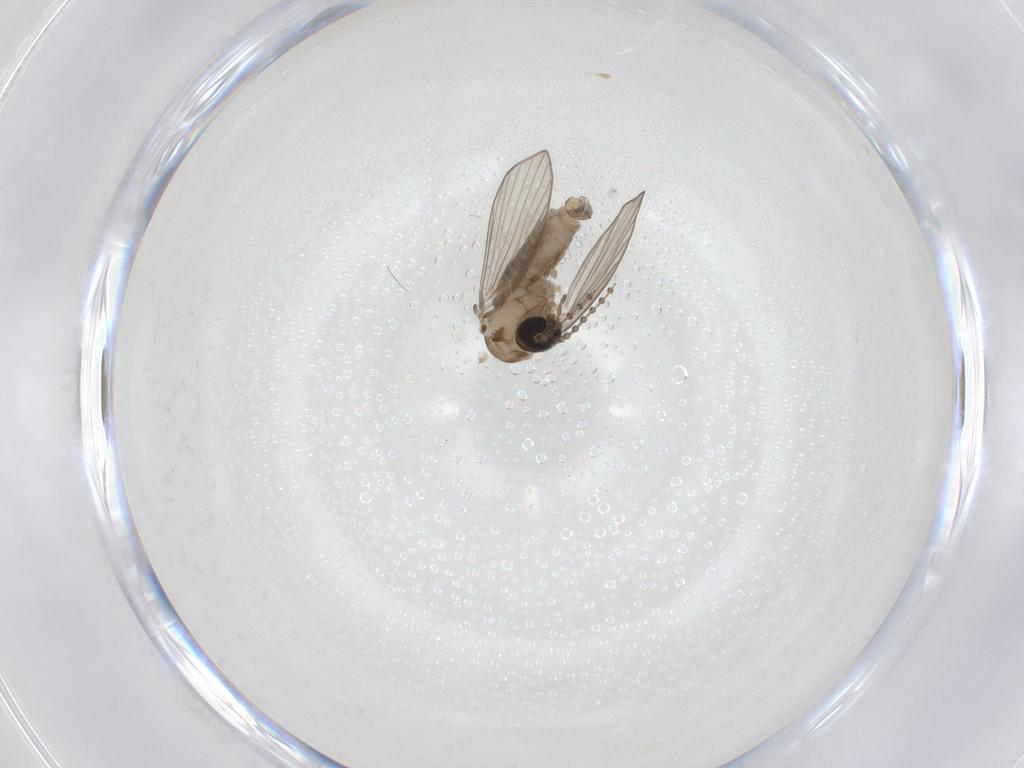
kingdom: Animalia
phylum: Arthropoda
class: Insecta
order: Diptera
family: Psychodidae
